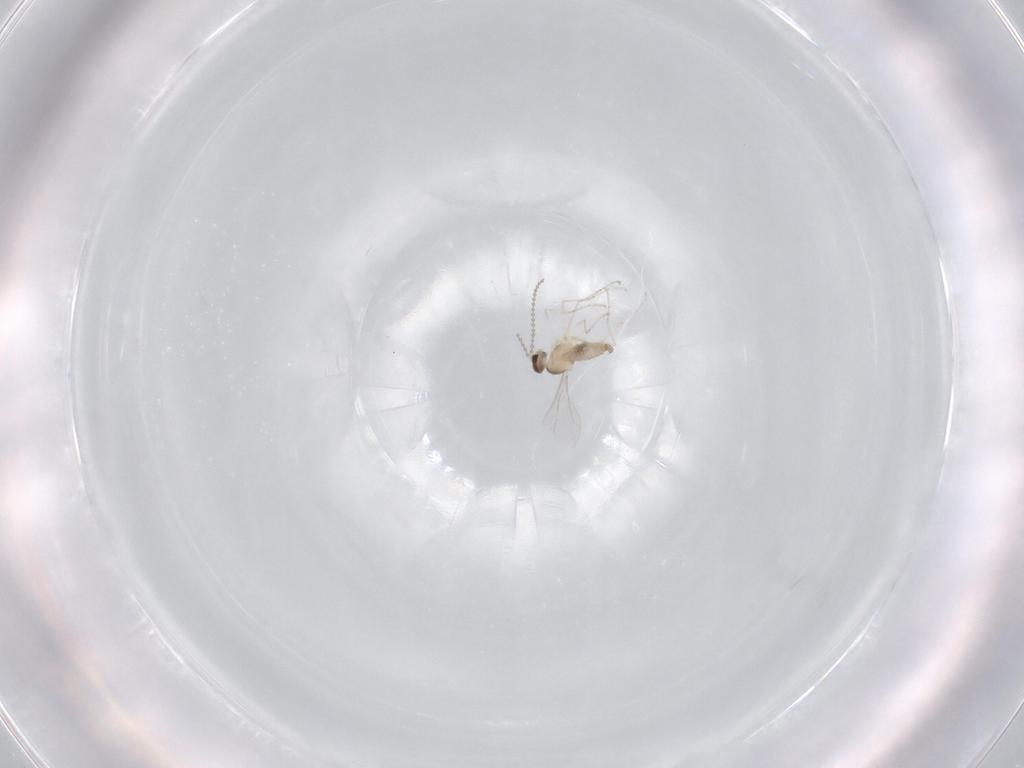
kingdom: Animalia
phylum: Arthropoda
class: Insecta
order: Diptera
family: Cecidomyiidae
